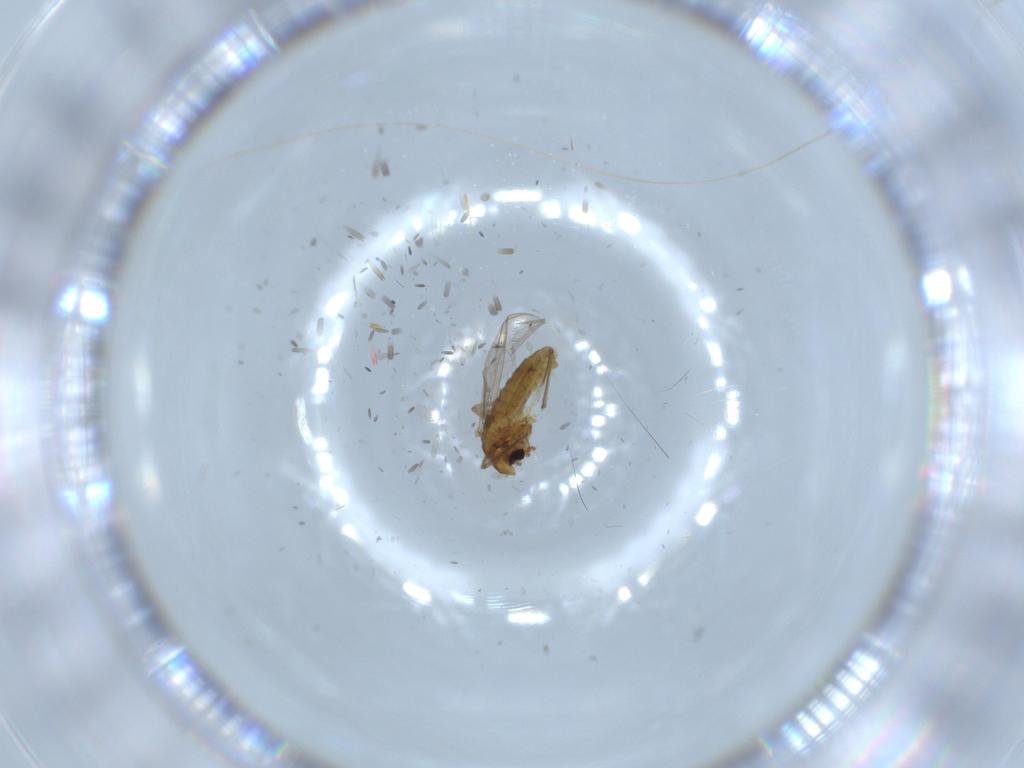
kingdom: Animalia
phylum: Arthropoda
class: Insecta
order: Diptera
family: Chironomidae
